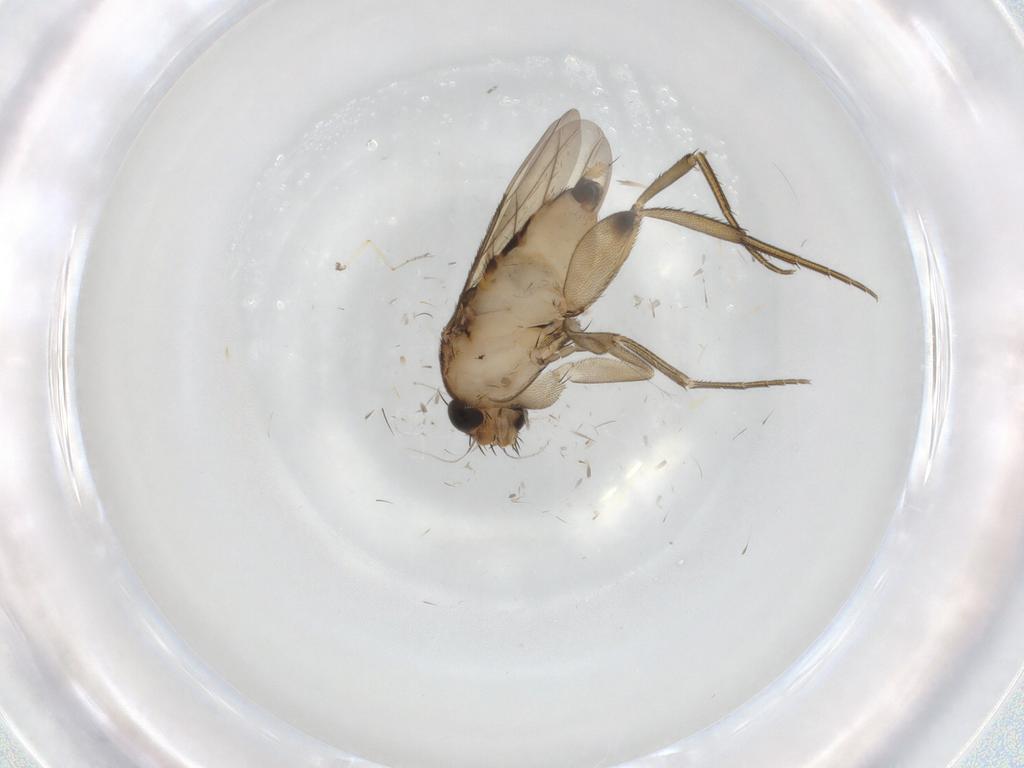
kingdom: Animalia
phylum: Arthropoda
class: Insecta
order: Diptera
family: Phoridae
